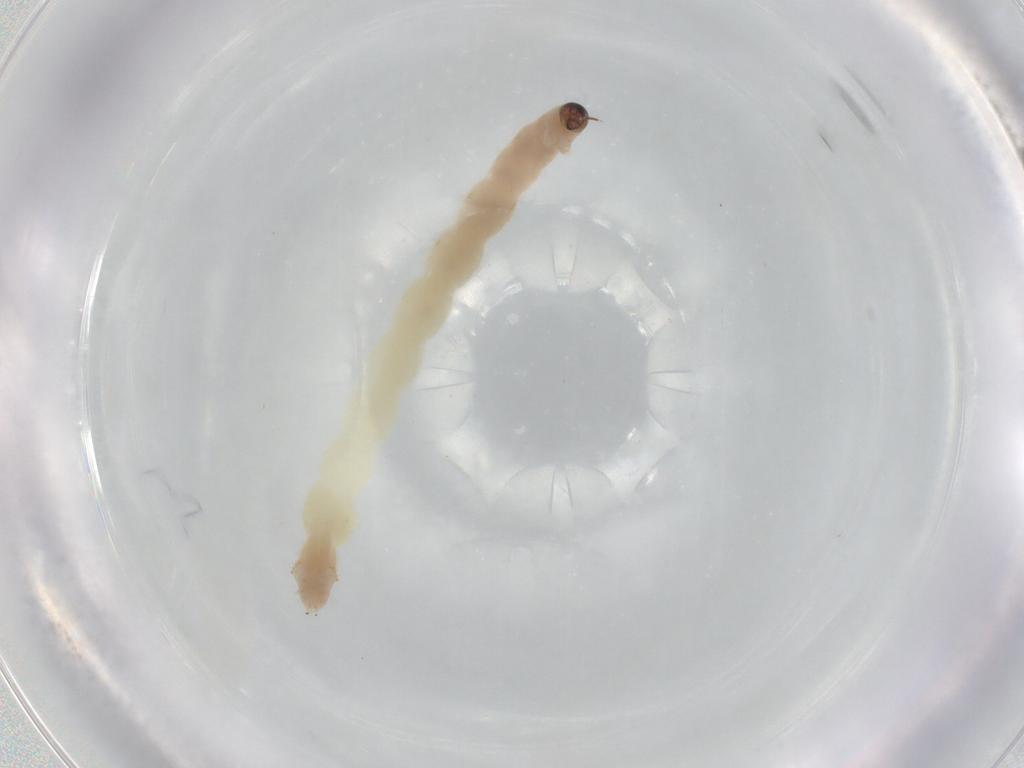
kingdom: Animalia
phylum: Arthropoda
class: Insecta
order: Diptera
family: Chironomidae
